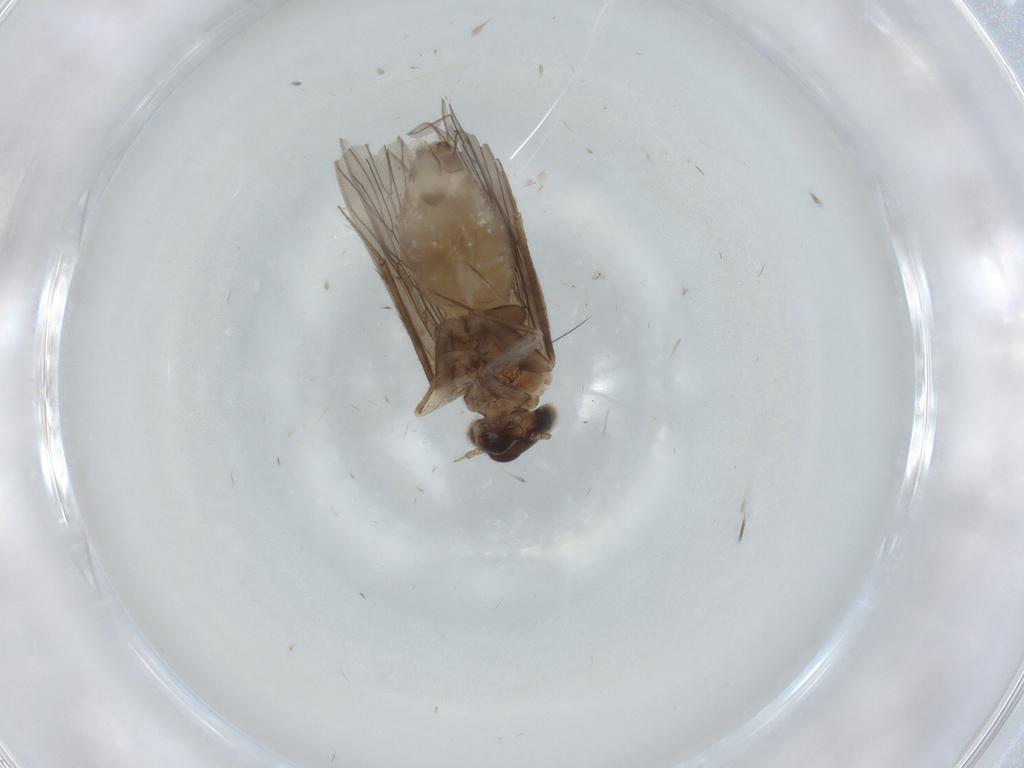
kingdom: Animalia
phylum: Arthropoda
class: Insecta
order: Psocodea
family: Lepidopsocidae
